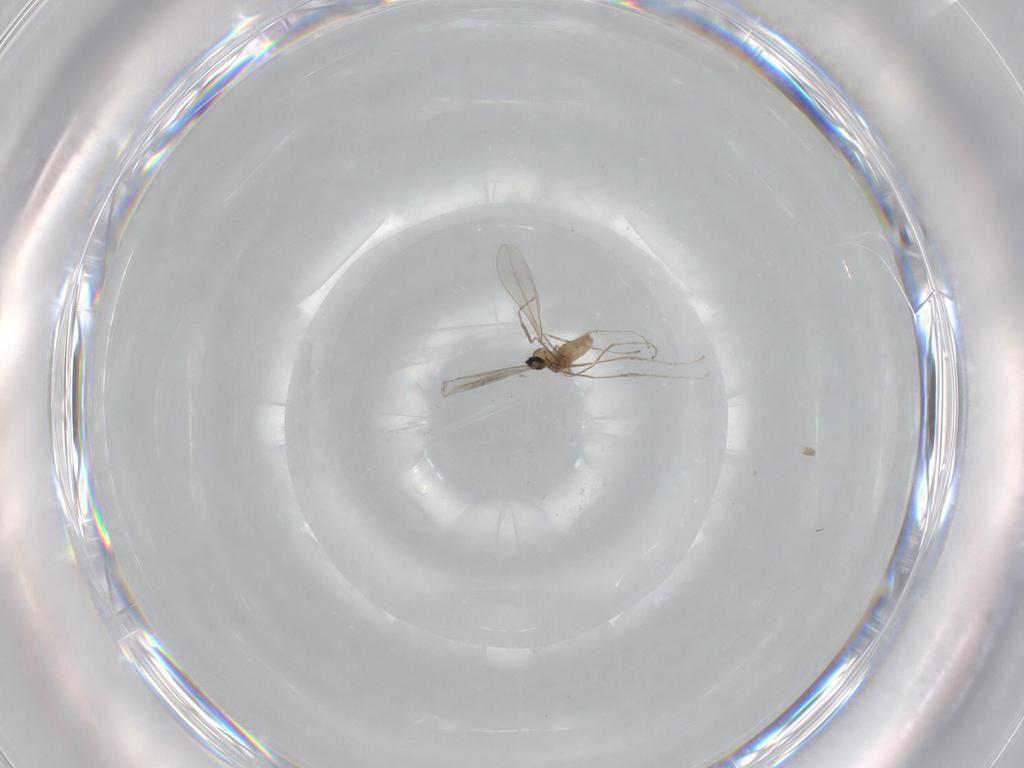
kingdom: Animalia
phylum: Arthropoda
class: Insecta
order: Diptera
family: Cecidomyiidae
